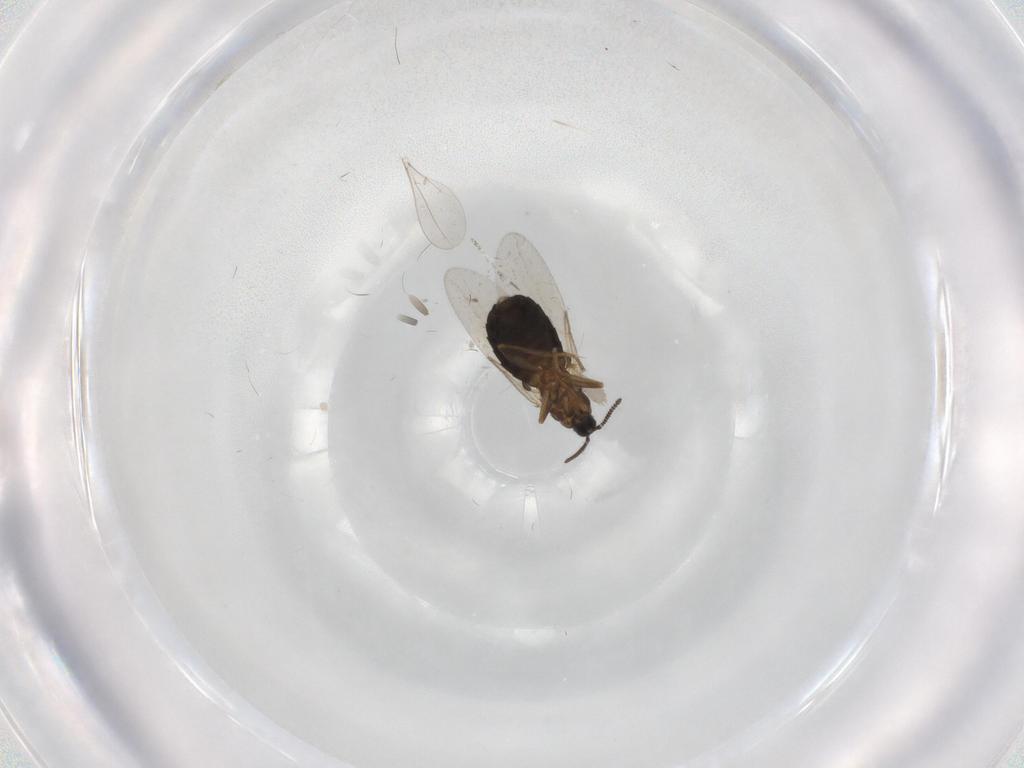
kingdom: Animalia
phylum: Arthropoda
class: Insecta
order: Diptera
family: Scatopsidae
